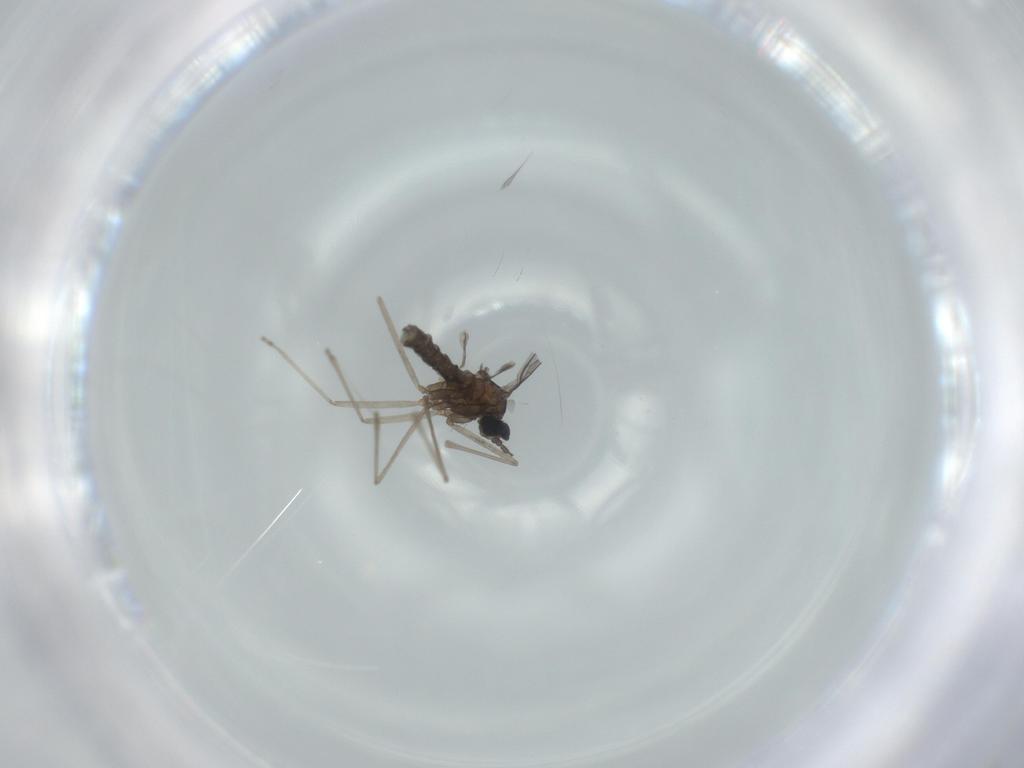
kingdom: Animalia
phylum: Arthropoda
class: Insecta
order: Diptera
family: Cecidomyiidae
